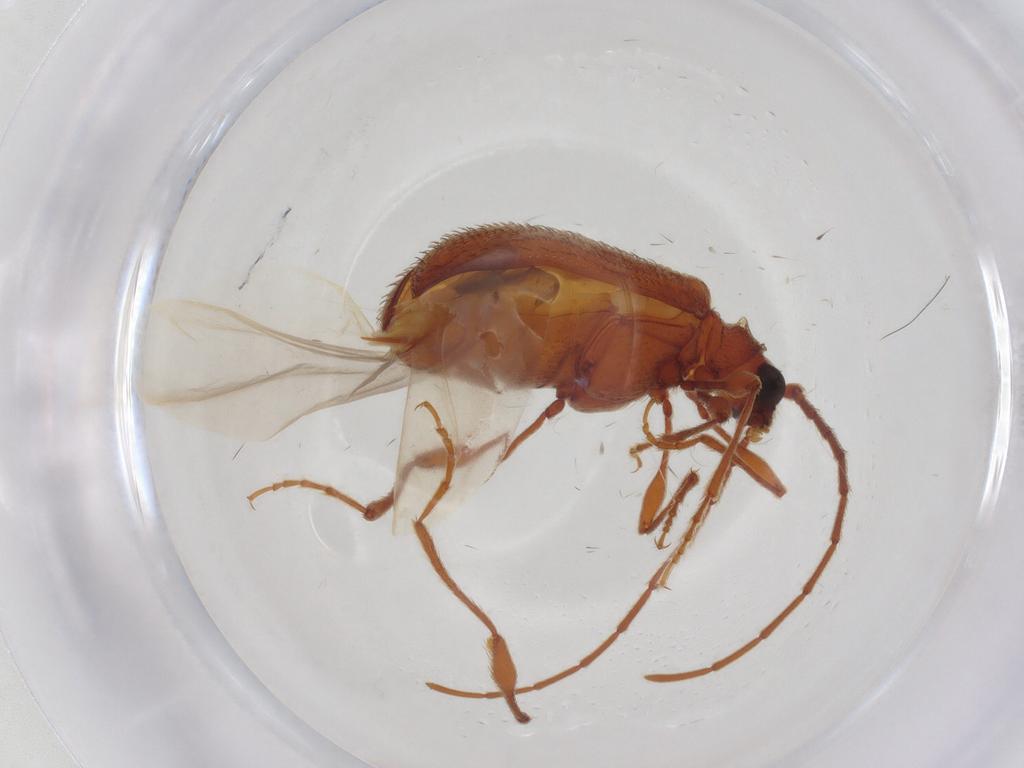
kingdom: Animalia
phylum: Arthropoda
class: Insecta
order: Coleoptera
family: Ptinidae
